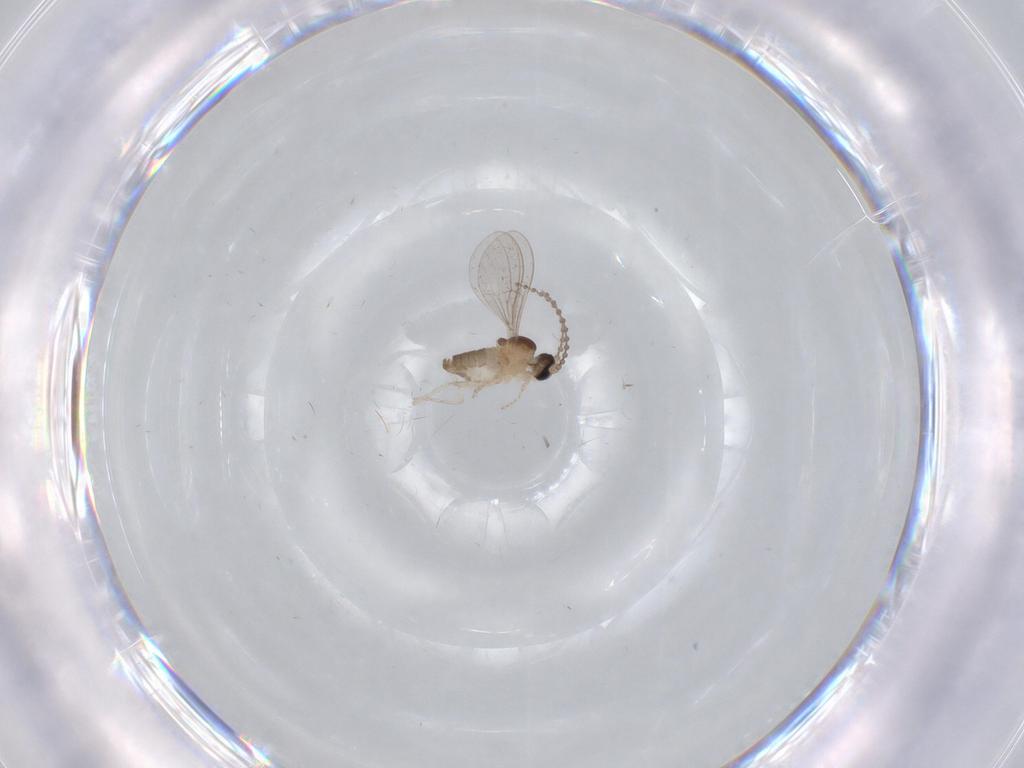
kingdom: Animalia
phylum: Arthropoda
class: Insecta
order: Diptera
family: Cecidomyiidae
